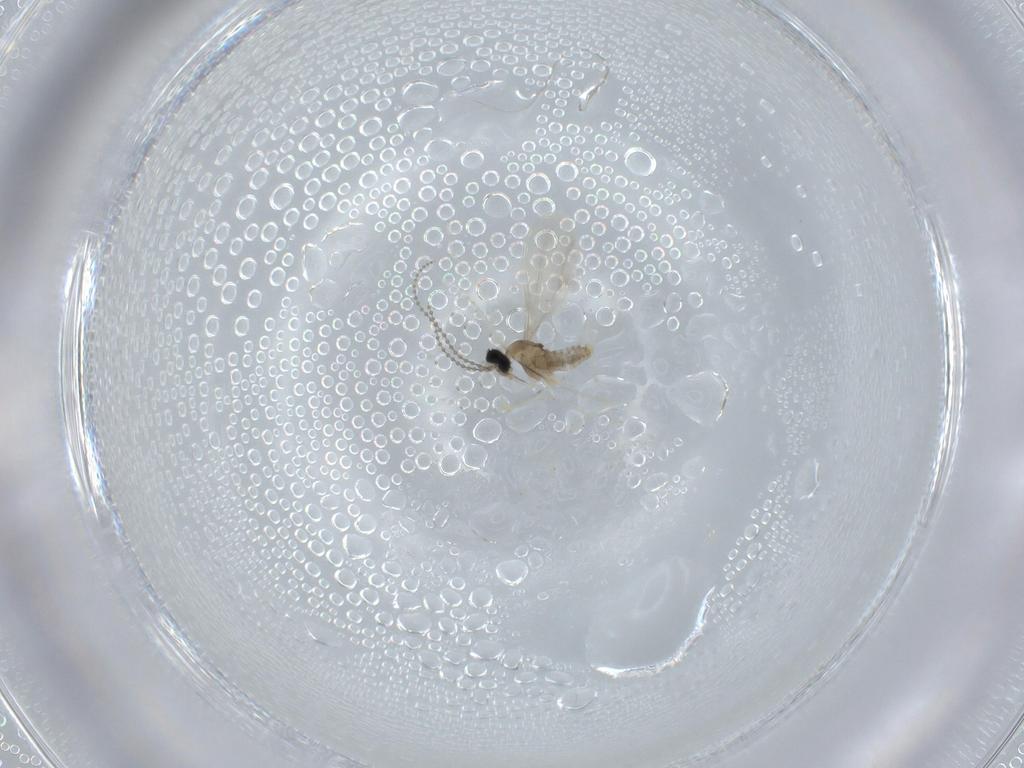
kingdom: Animalia
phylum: Arthropoda
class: Insecta
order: Diptera
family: Cecidomyiidae
